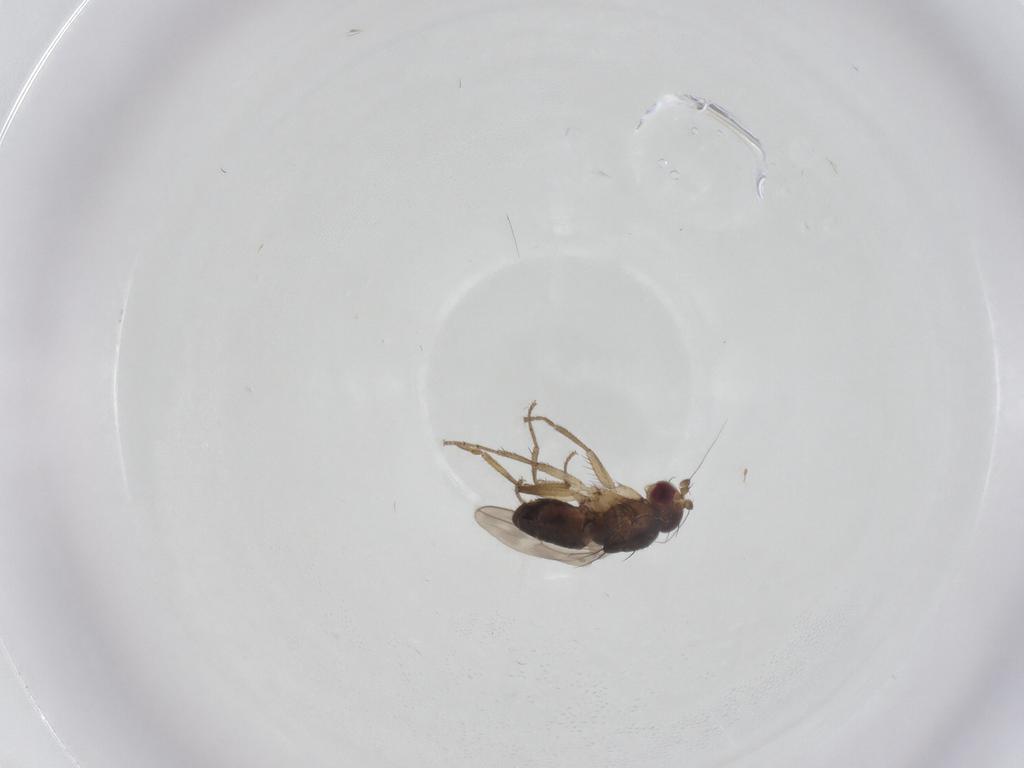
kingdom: Animalia
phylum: Arthropoda
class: Insecta
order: Diptera
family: Sphaeroceridae
